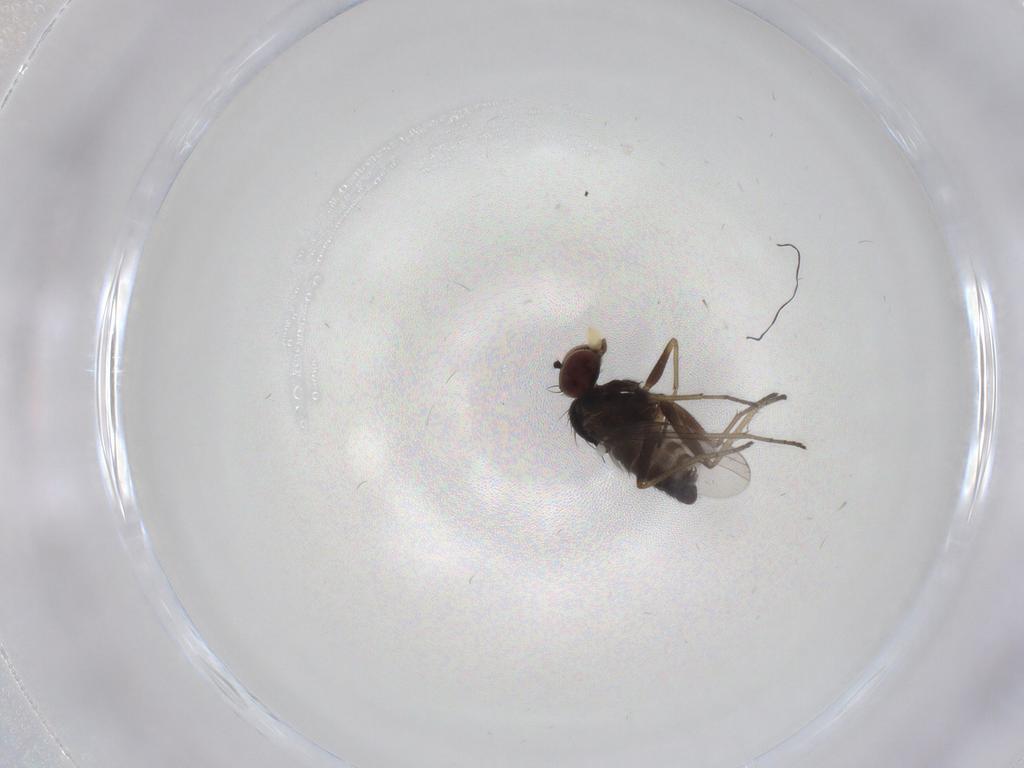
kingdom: Animalia
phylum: Arthropoda
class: Insecta
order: Diptera
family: Dolichopodidae
